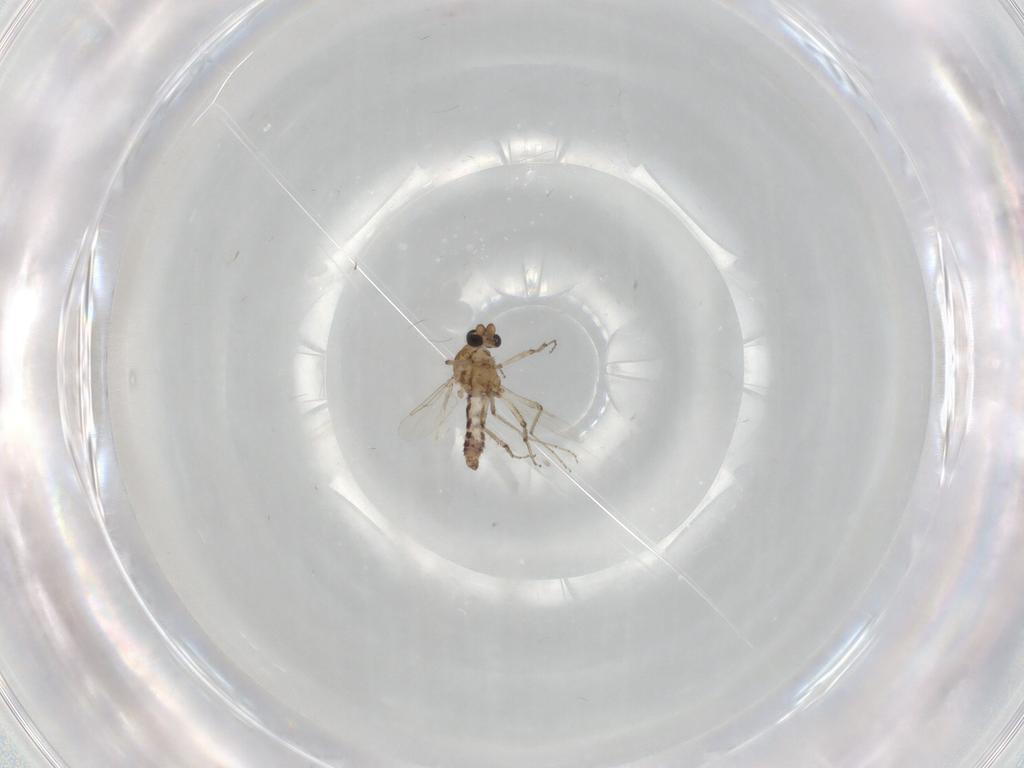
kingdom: Animalia
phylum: Arthropoda
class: Insecta
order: Diptera
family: Ceratopogonidae
